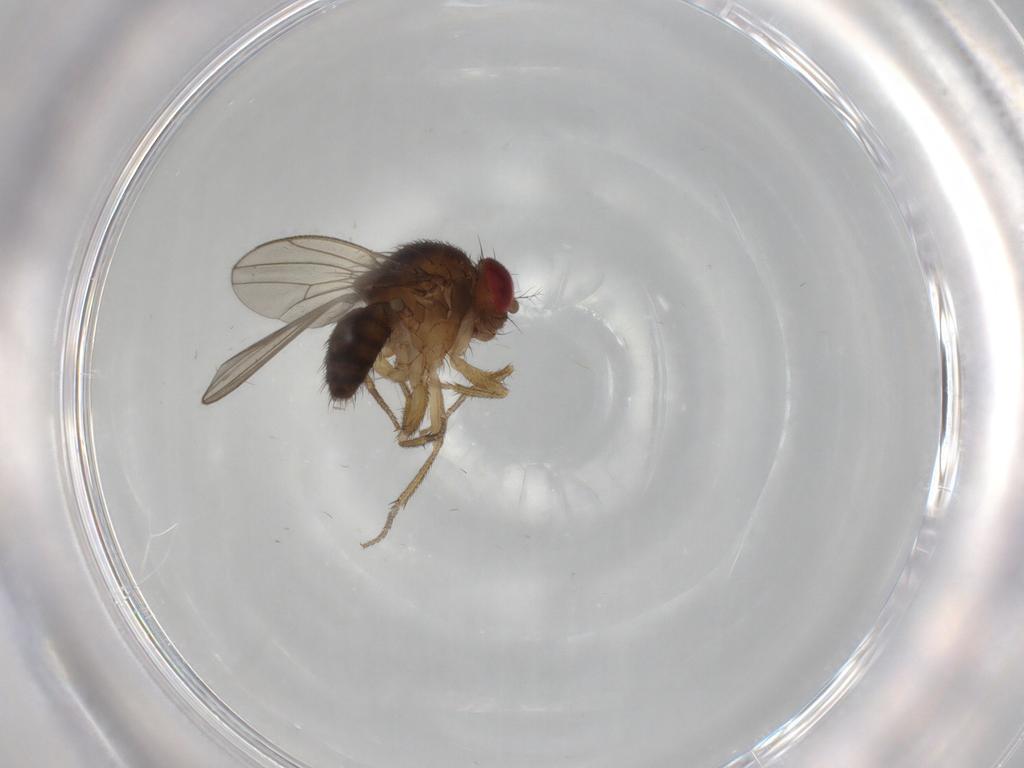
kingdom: Animalia
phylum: Arthropoda
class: Insecta
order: Diptera
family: Drosophilidae
